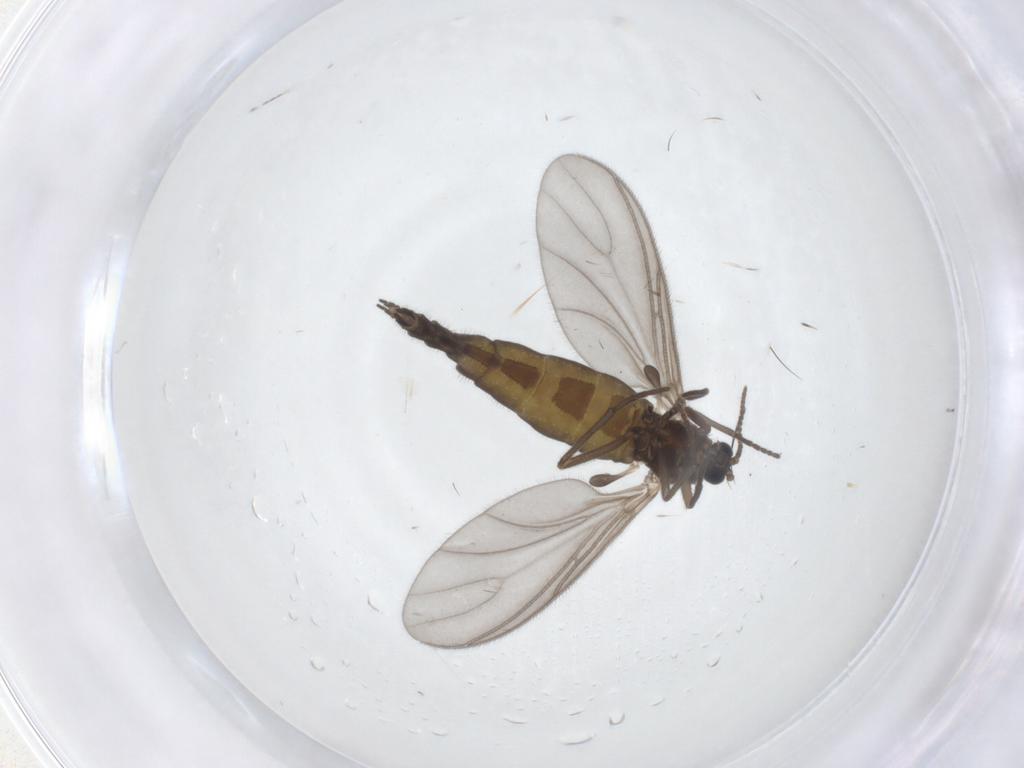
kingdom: Animalia
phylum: Arthropoda
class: Insecta
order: Diptera
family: Sciaridae
